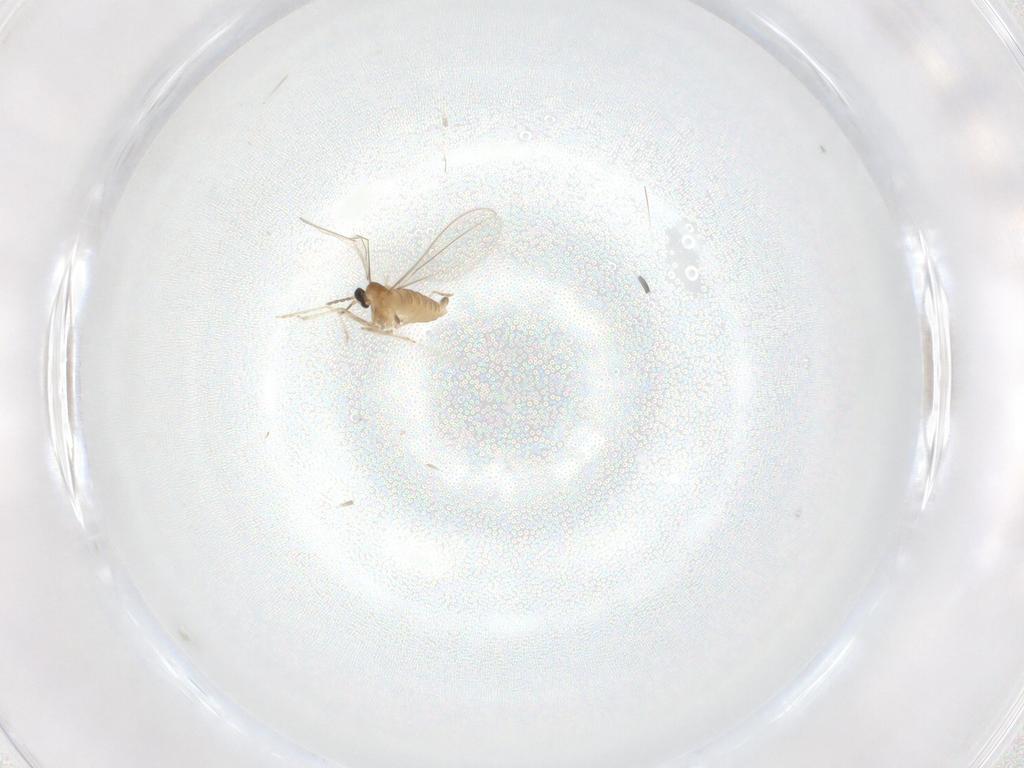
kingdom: Animalia
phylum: Arthropoda
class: Insecta
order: Diptera
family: Cecidomyiidae
